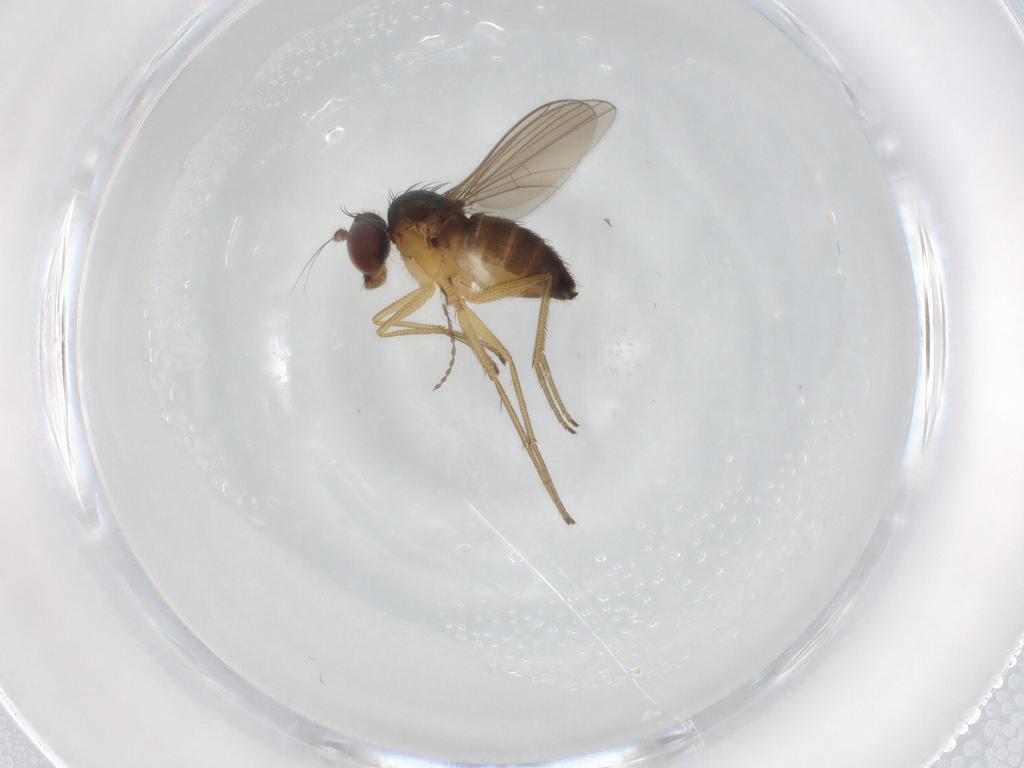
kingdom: Animalia
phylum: Arthropoda
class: Insecta
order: Diptera
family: Dolichopodidae
